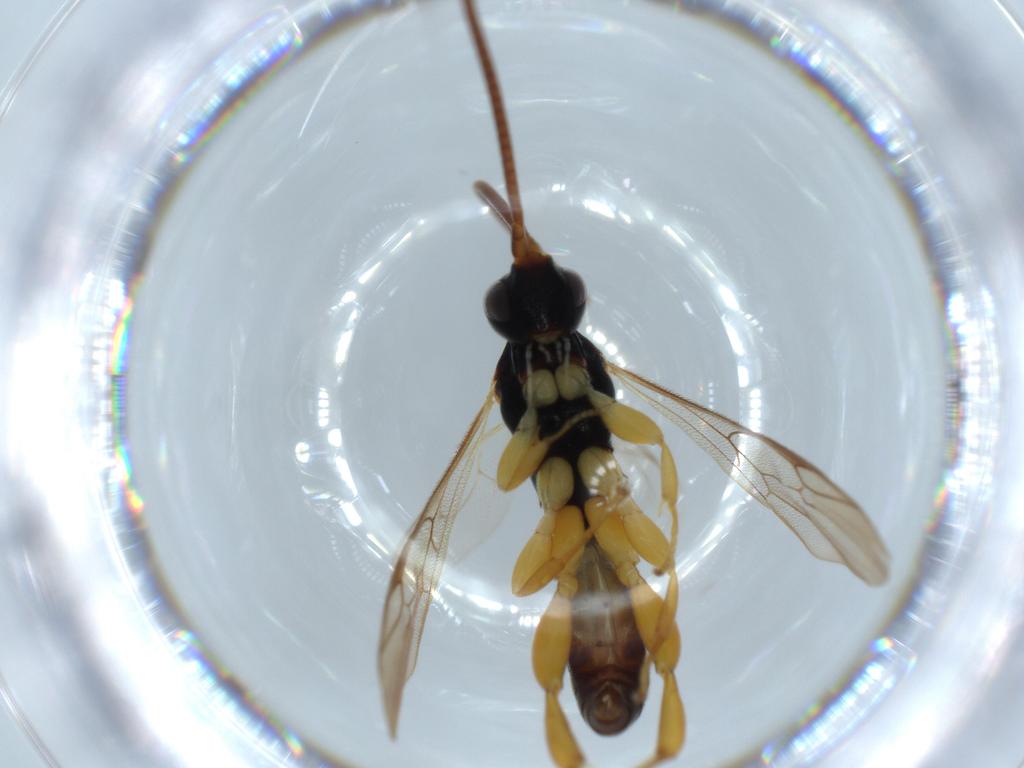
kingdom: Animalia
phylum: Arthropoda
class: Insecta
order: Hymenoptera
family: Ichneumonidae
